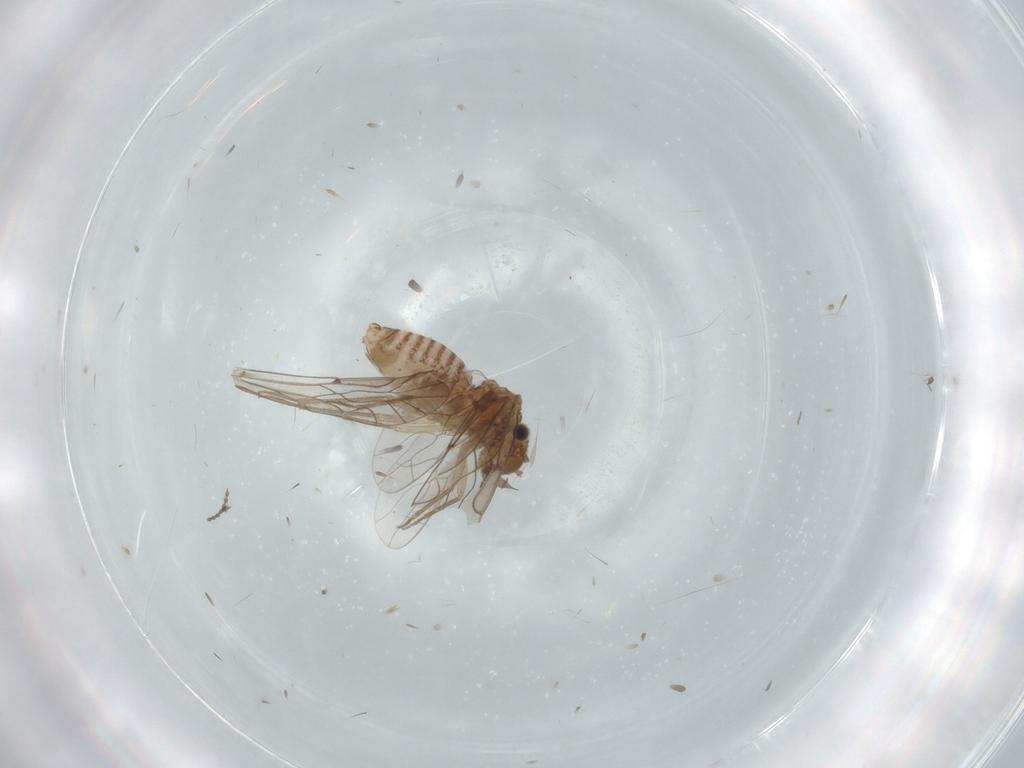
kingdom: Animalia
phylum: Arthropoda
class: Insecta
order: Psocodea
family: Lachesillidae
